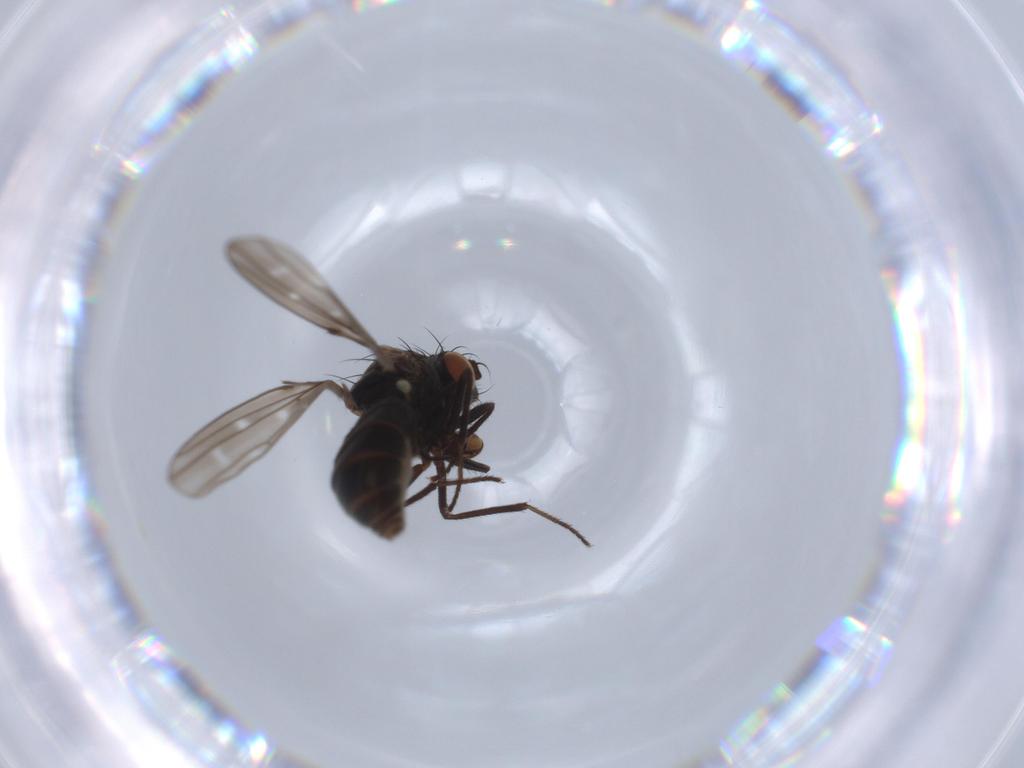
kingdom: Animalia
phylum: Arthropoda
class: Insecta
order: Diptera
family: Ephydridae
